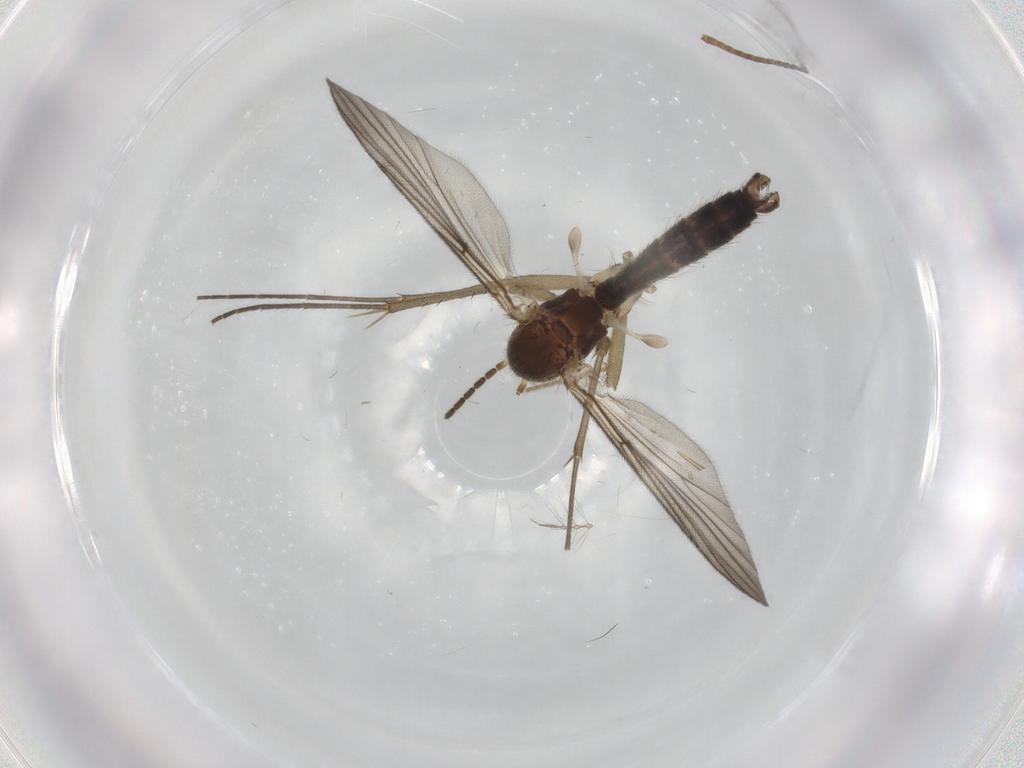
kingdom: Animalia
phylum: Arthropoda
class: Insecta
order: Diptera
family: Chironomidae
